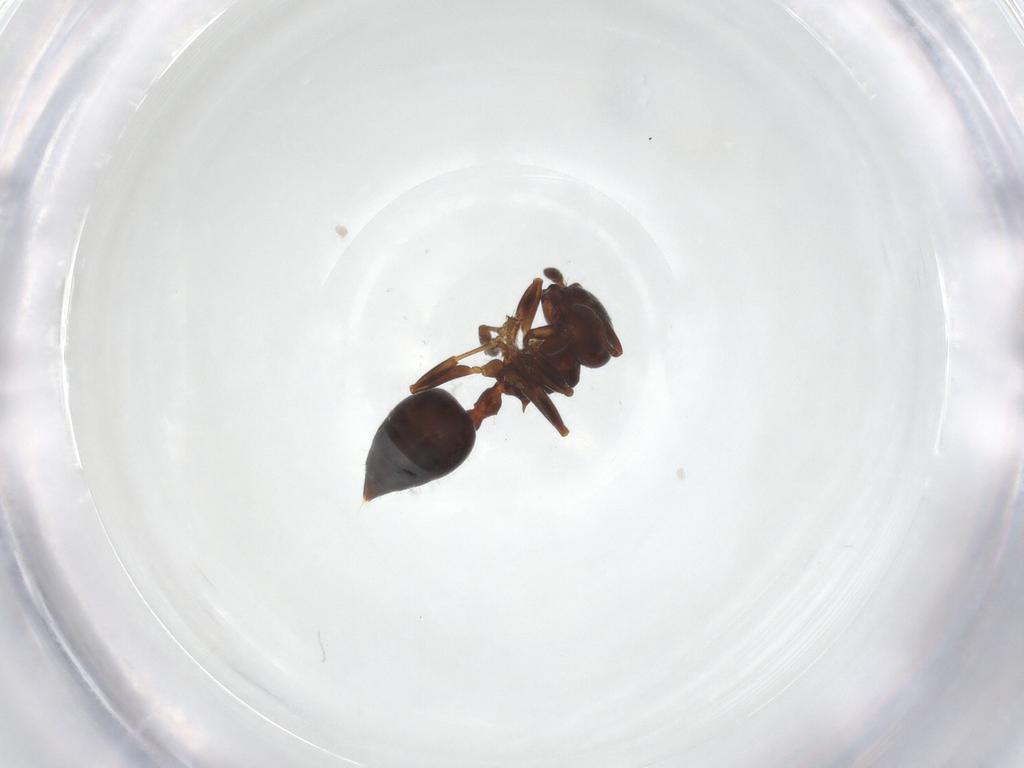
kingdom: Animalia
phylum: Arthropoda
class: Insecta
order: Hymenoptera
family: Formicidae
